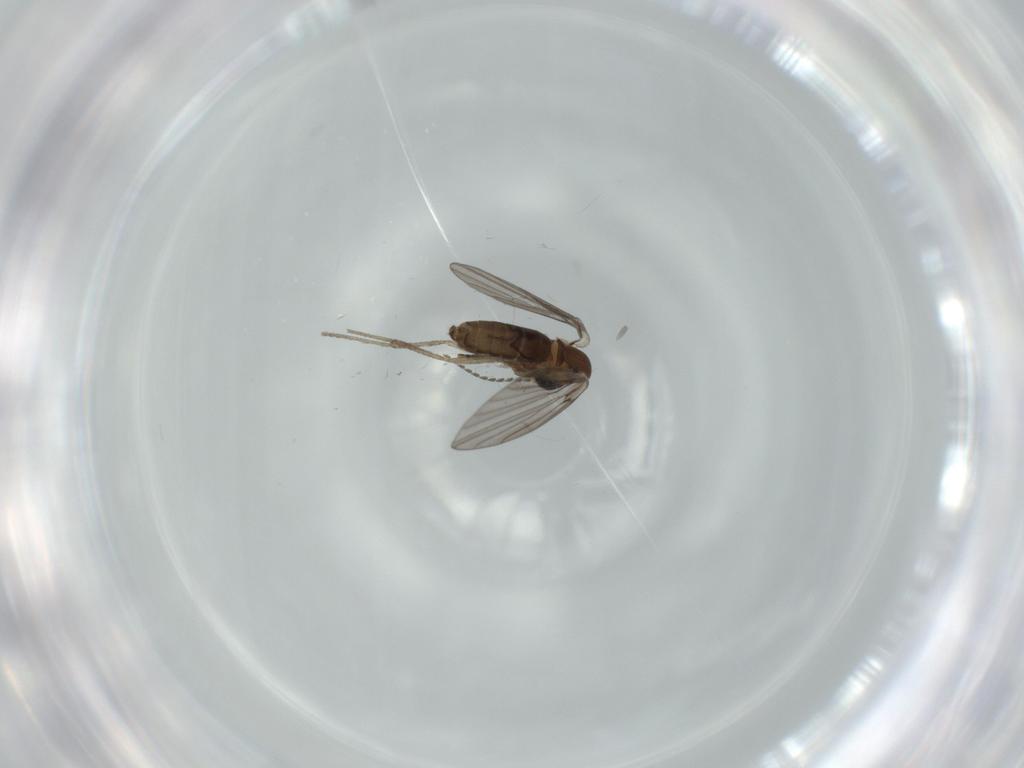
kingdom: Animalia
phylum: Arthropoda
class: Insecta
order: Diptera
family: Psychodidae
